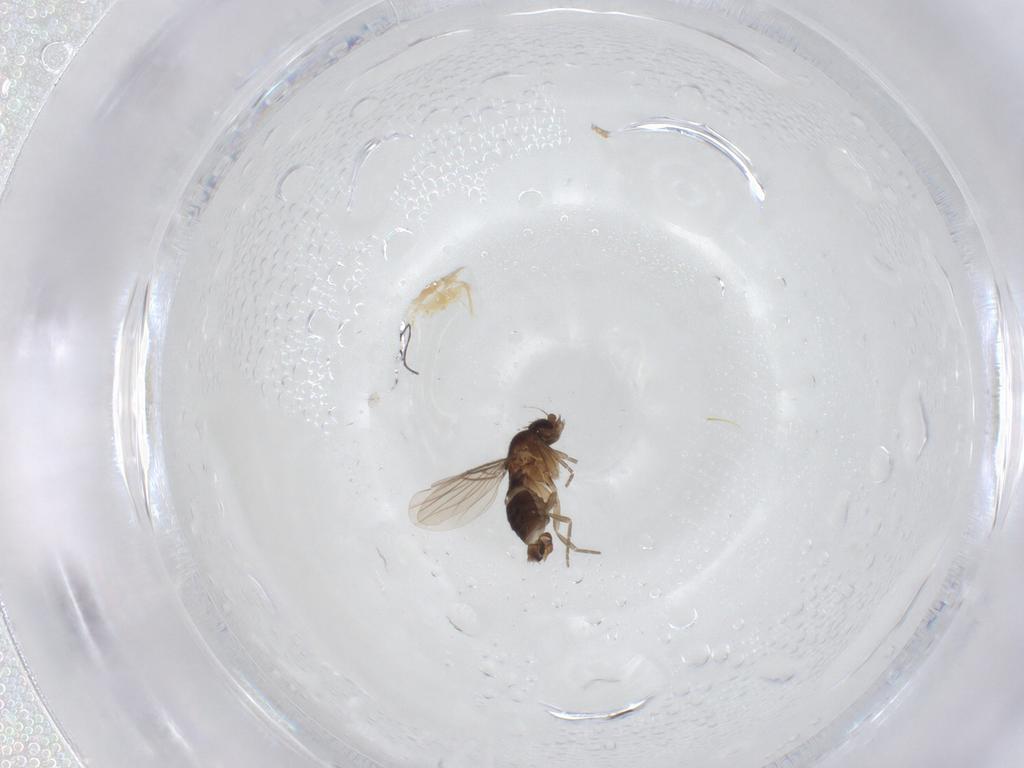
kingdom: Animalia
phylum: Arthropoda
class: Insecta
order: Diptera
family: Phoridae
